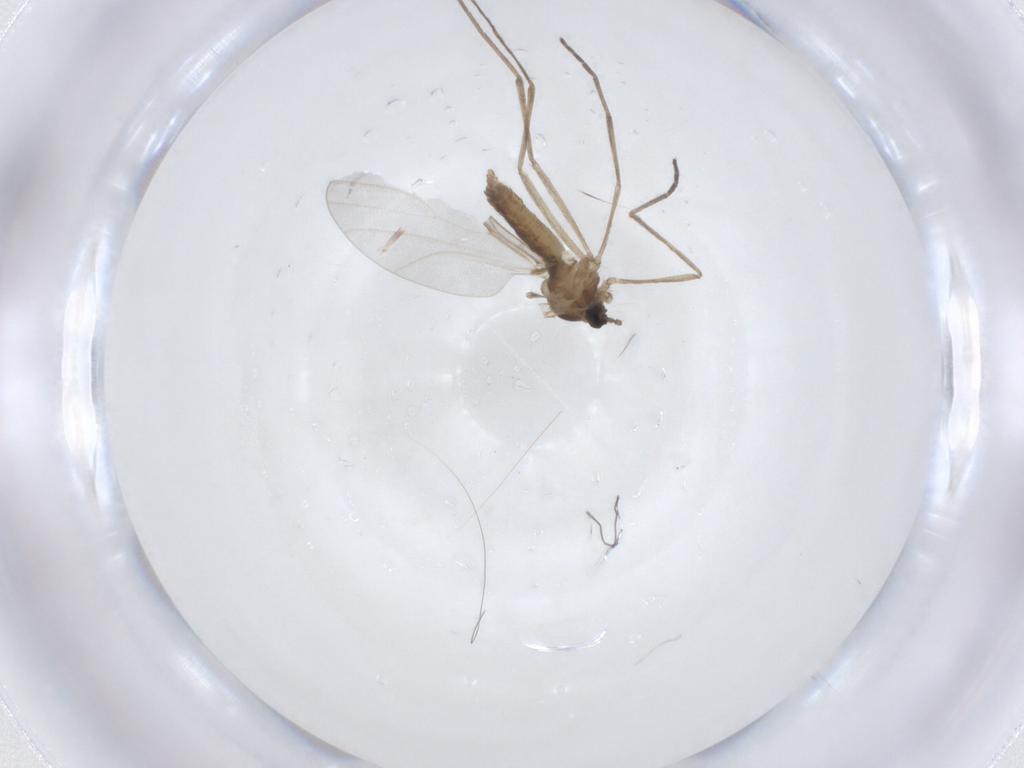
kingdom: Animalia
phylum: Arthropoda
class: Insecta
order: Diptera
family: Cecidomyiidae
